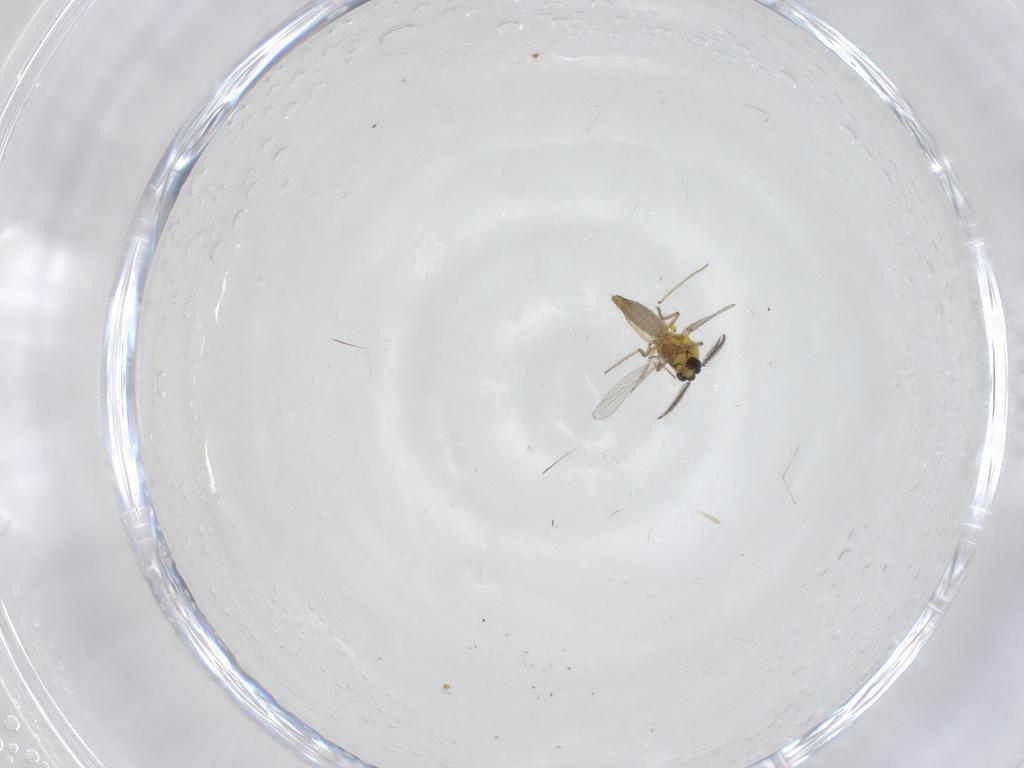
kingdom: Animalia
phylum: Arthropoda
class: Insecta
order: Diptera
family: Ceratopogonidae
